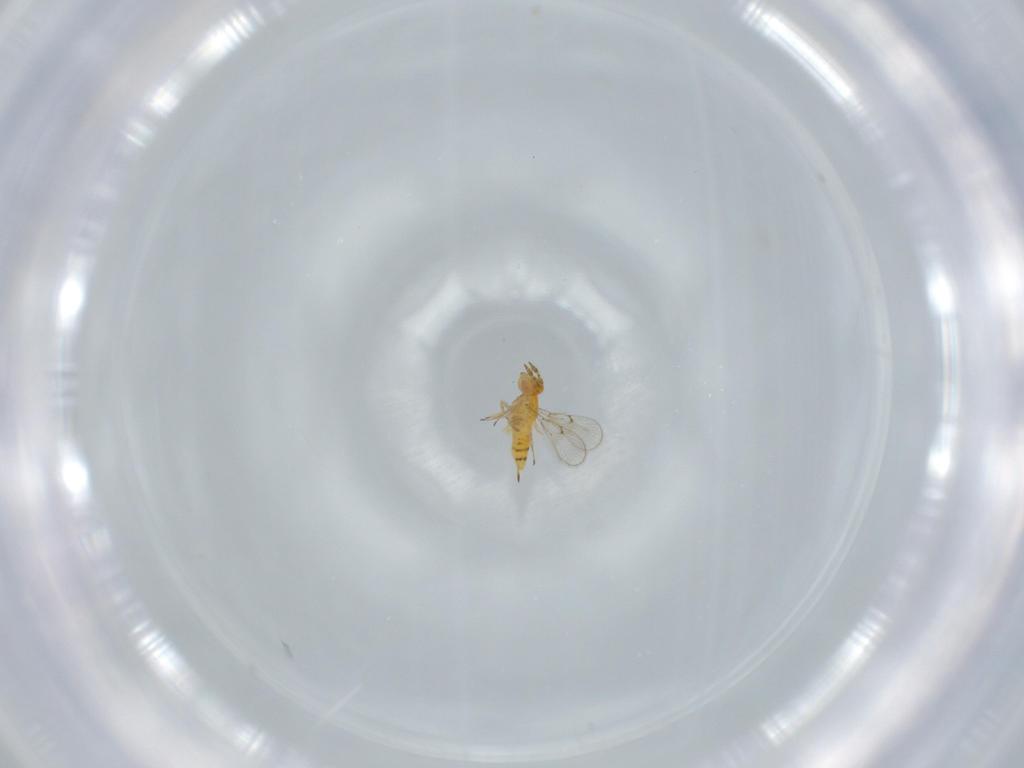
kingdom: Animalia
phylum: Arthropoda
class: Insecta
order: Hymenoptera
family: Trichogrammatidae
